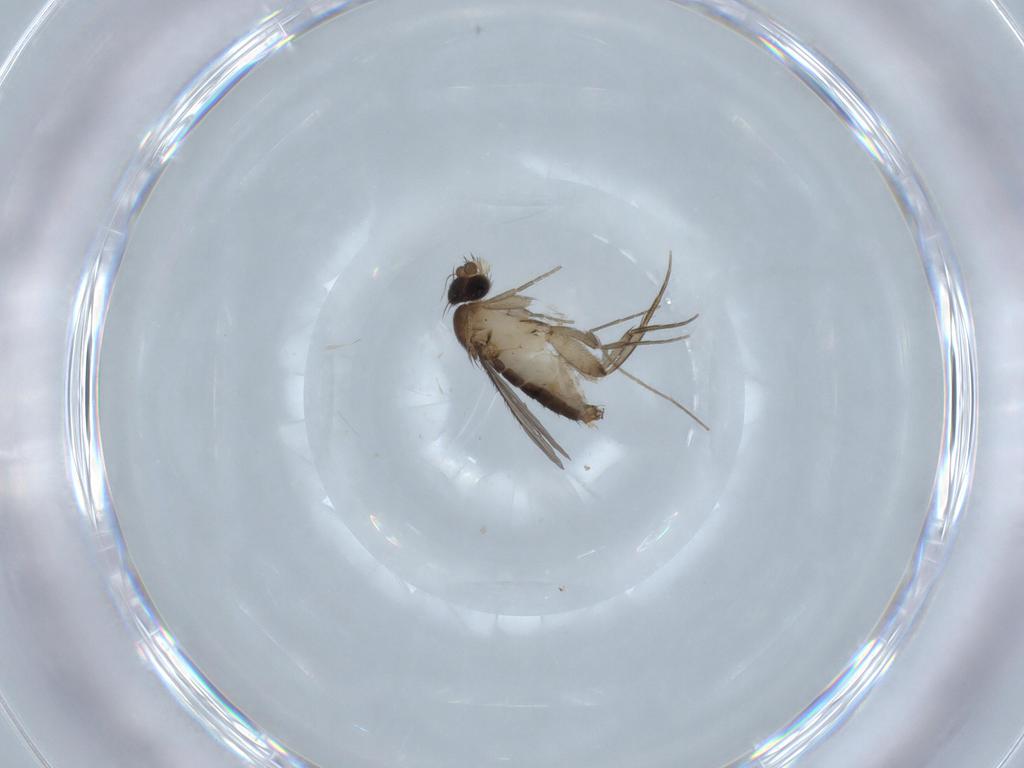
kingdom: Animalia
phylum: Arthropoda
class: Insecta
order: Diptera
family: Phoridae
